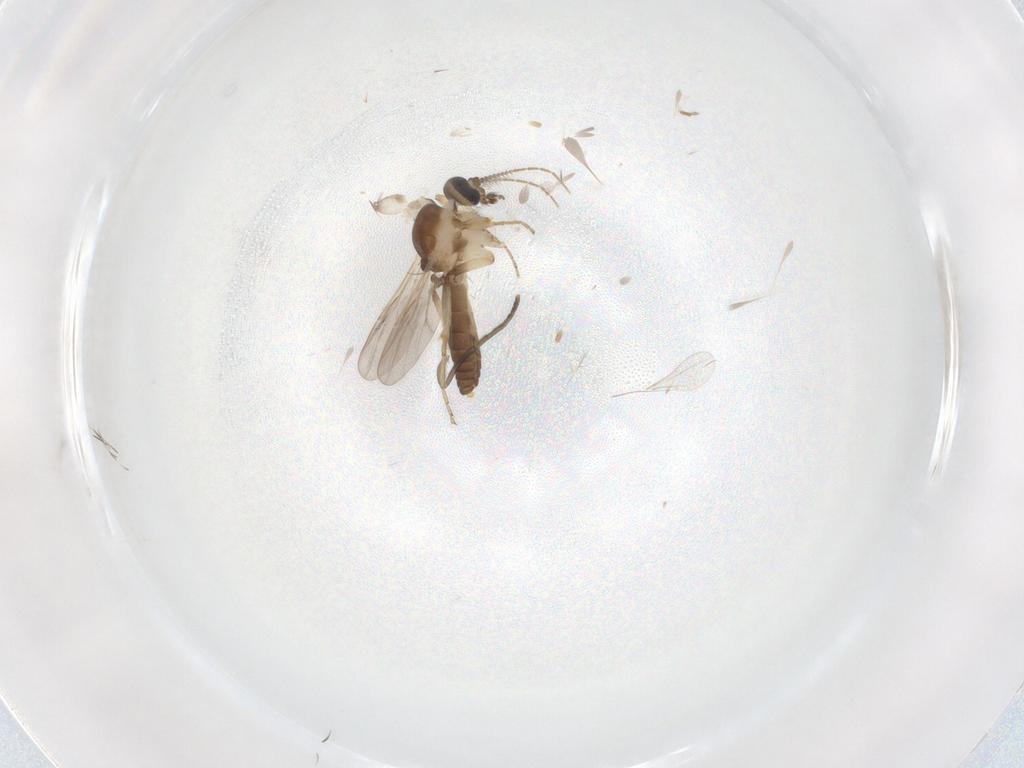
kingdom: Animalia
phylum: Arthropoda
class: Insecta
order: Diptera
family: Ceratopogonidae
